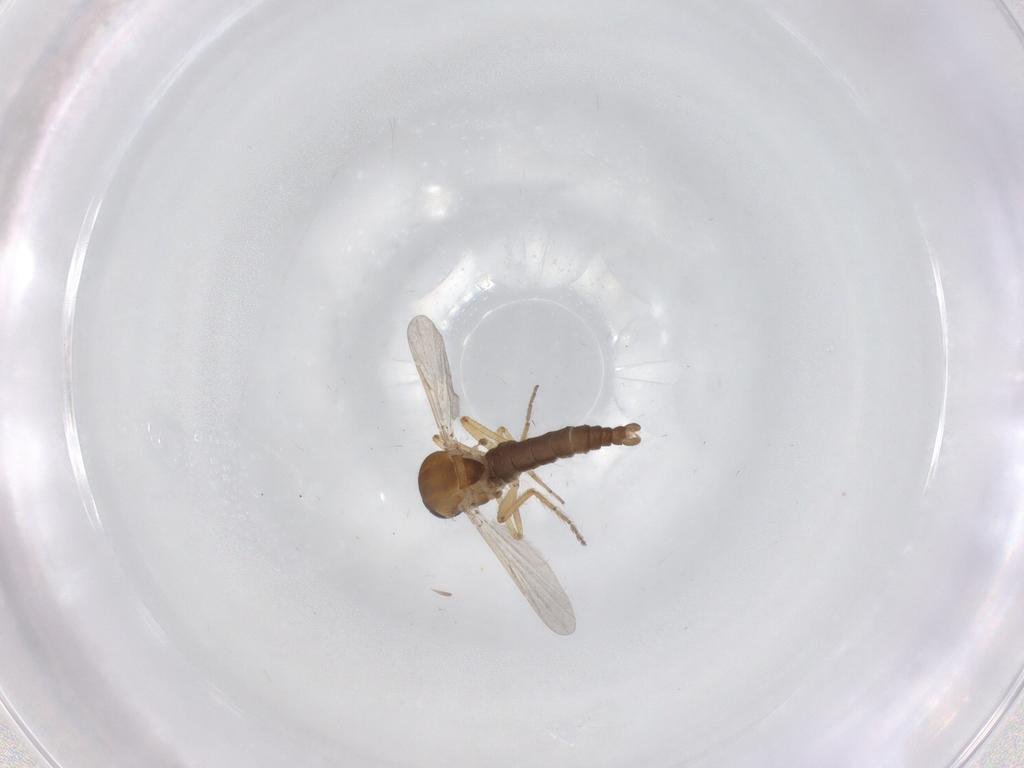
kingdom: Animalia
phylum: Arthropoda
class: Insecta
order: Diptera
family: Ceratopogonidae
